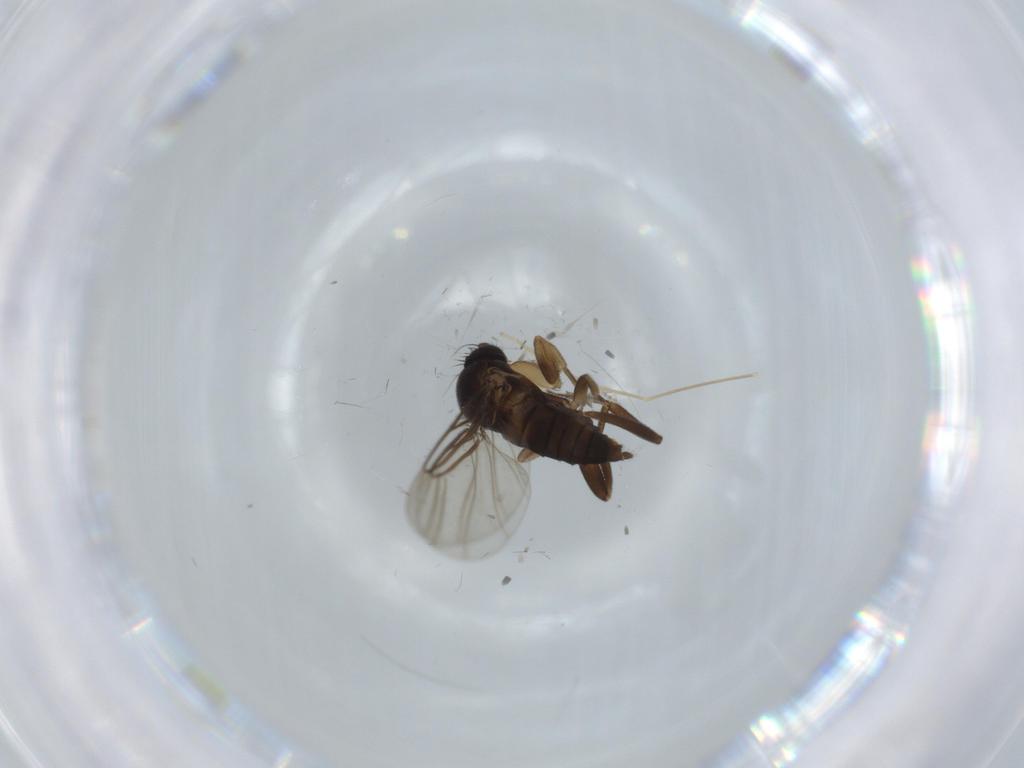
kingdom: Animalia
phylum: Arthropoda
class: Insecta
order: Diptera
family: Phoridae
